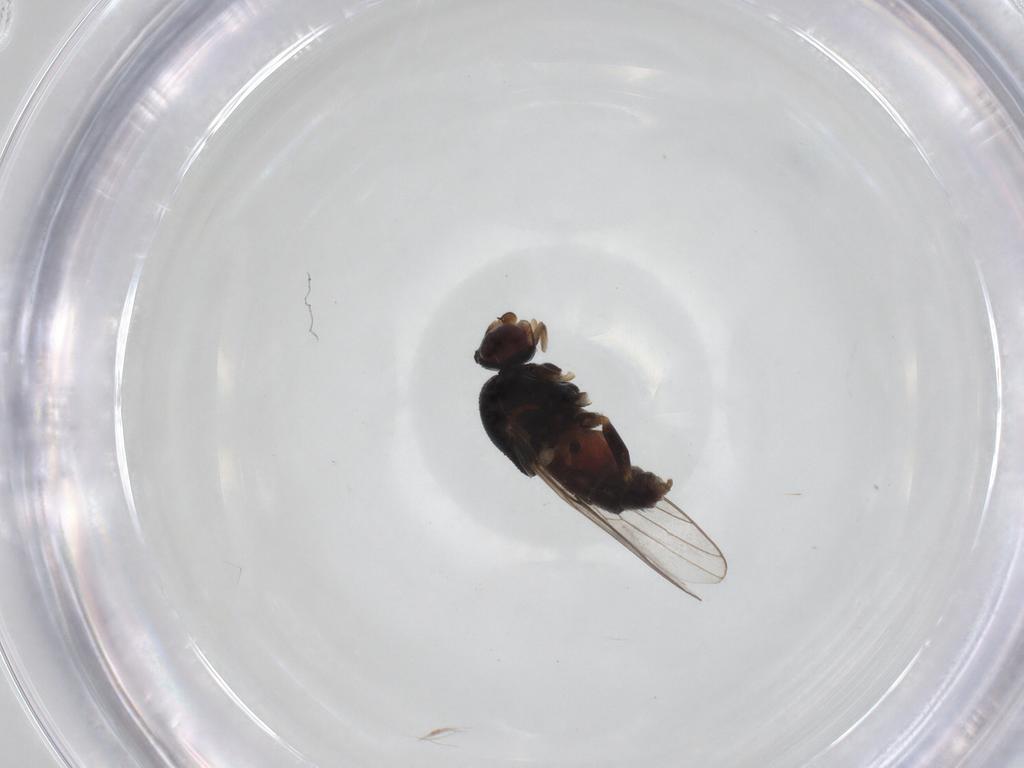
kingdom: Animalia
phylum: Arthropoda
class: Insecta
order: Diptera
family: Chloropidae
